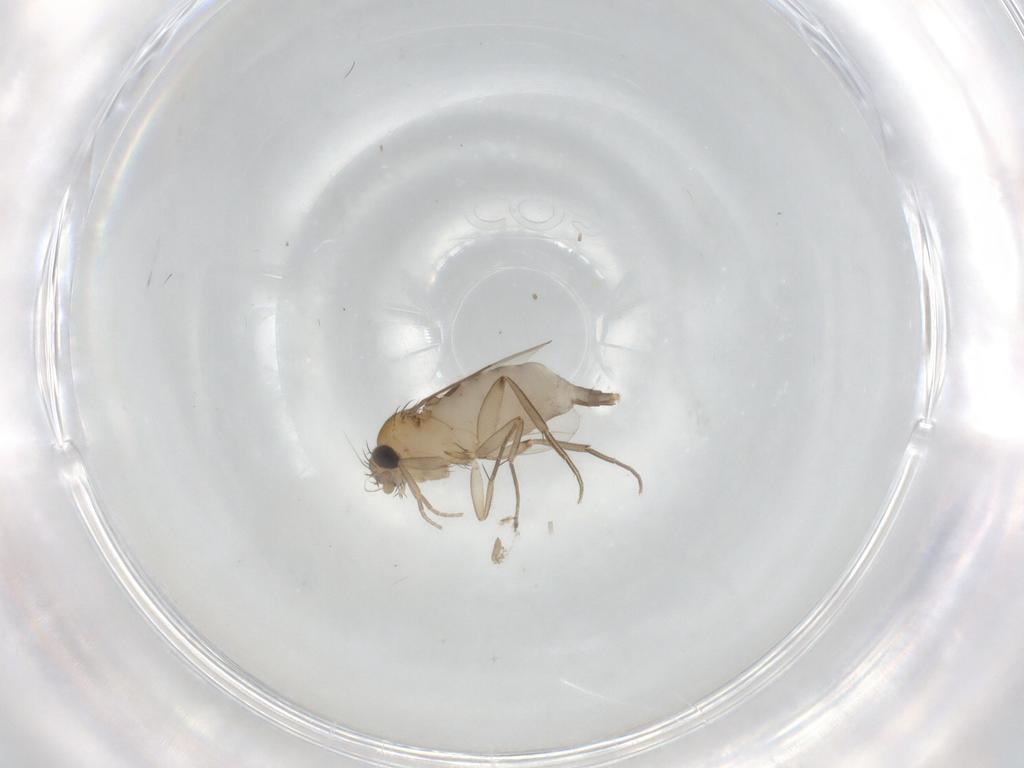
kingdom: Animalia
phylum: Arthropoda
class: Insecta
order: Diptera
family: Phoridae
